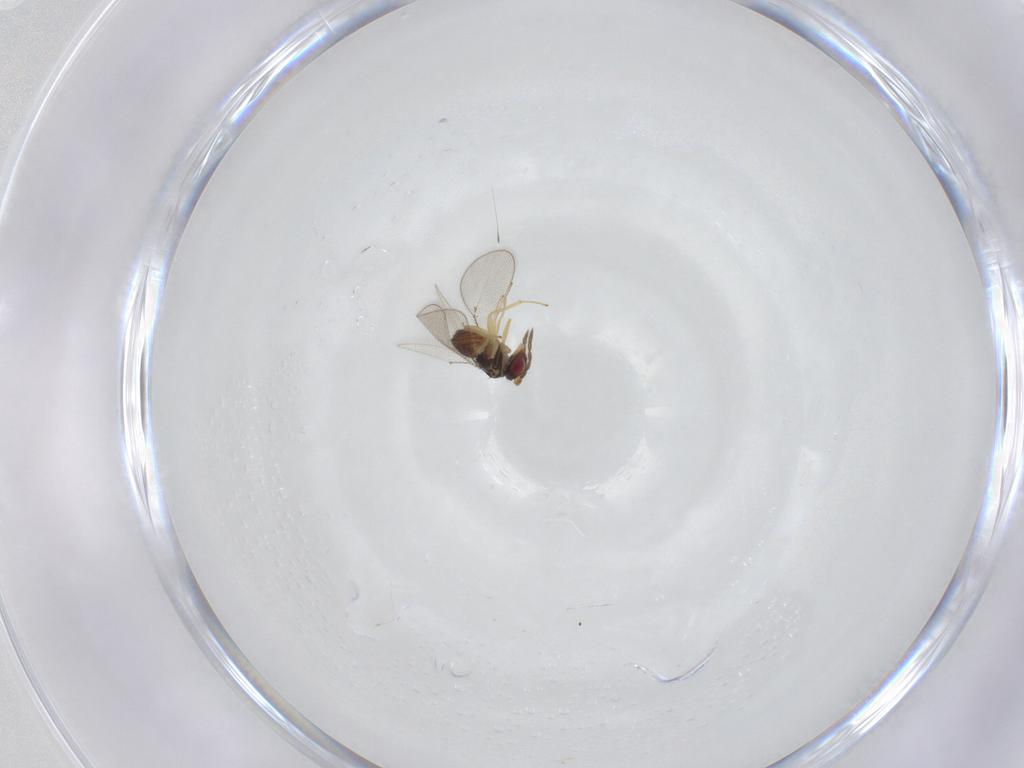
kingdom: Animalia
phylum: Arthropoda
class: Insecta
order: Hymenoptera
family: Eulophidae
